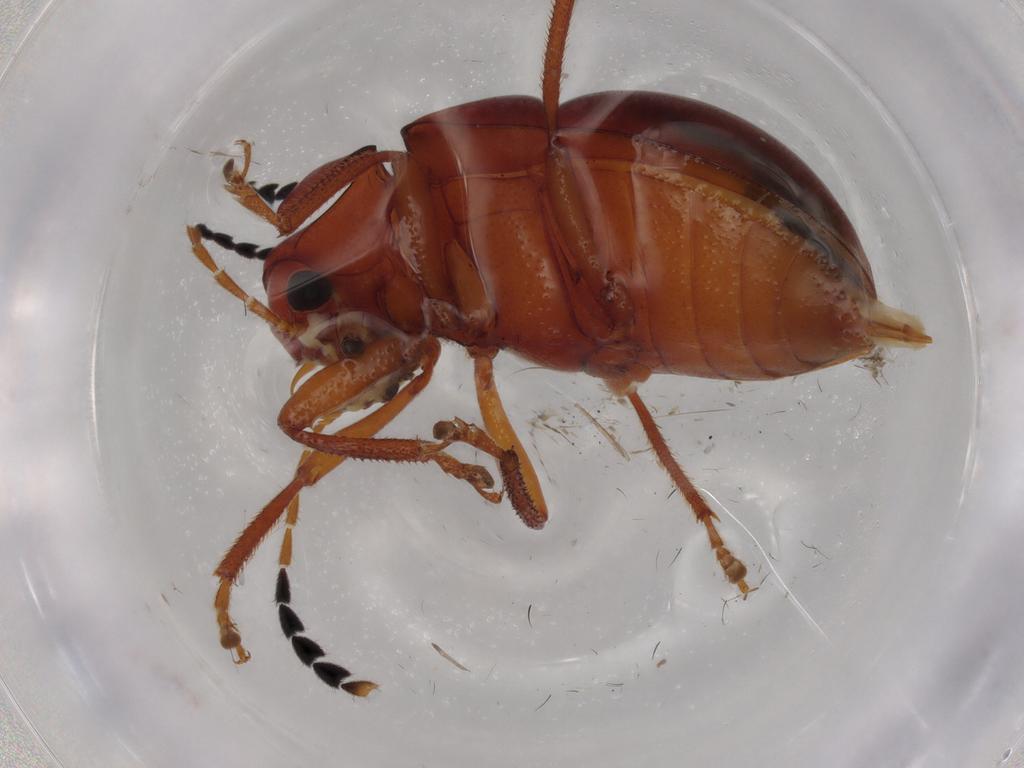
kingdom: Animalia
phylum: Arthropoda
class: Insecta
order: Coleoptera
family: Ptilodactylidae
